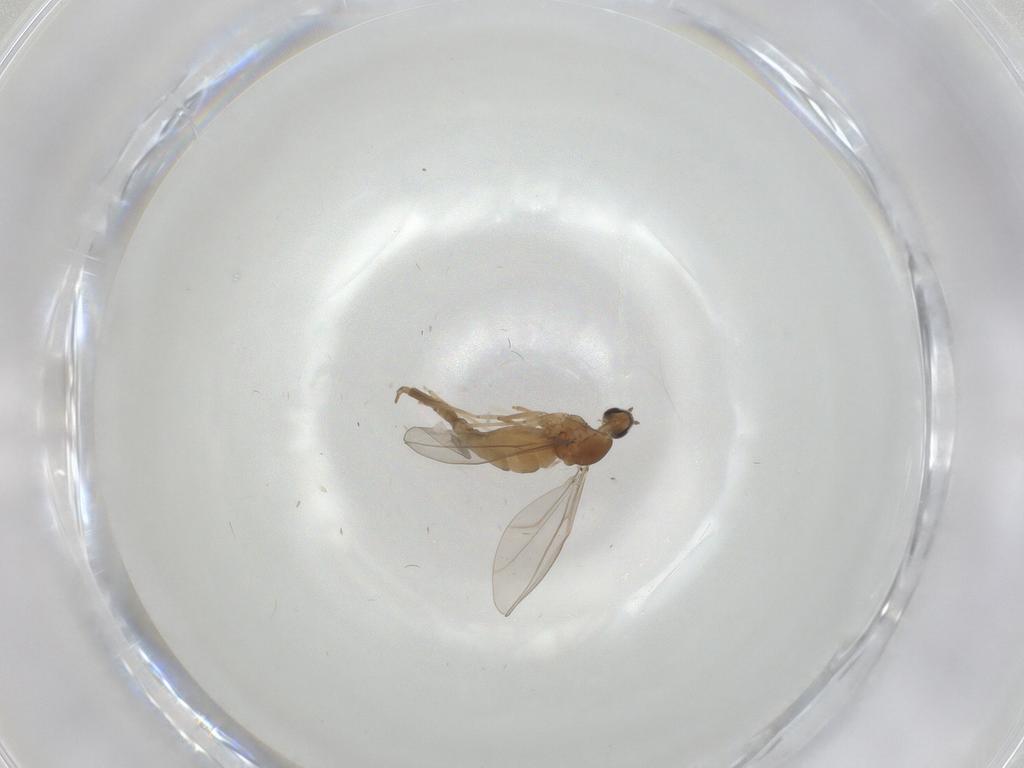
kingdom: Animalia
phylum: Arthropoda
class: Insecta
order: Diptera
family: Cecidomyiidae
